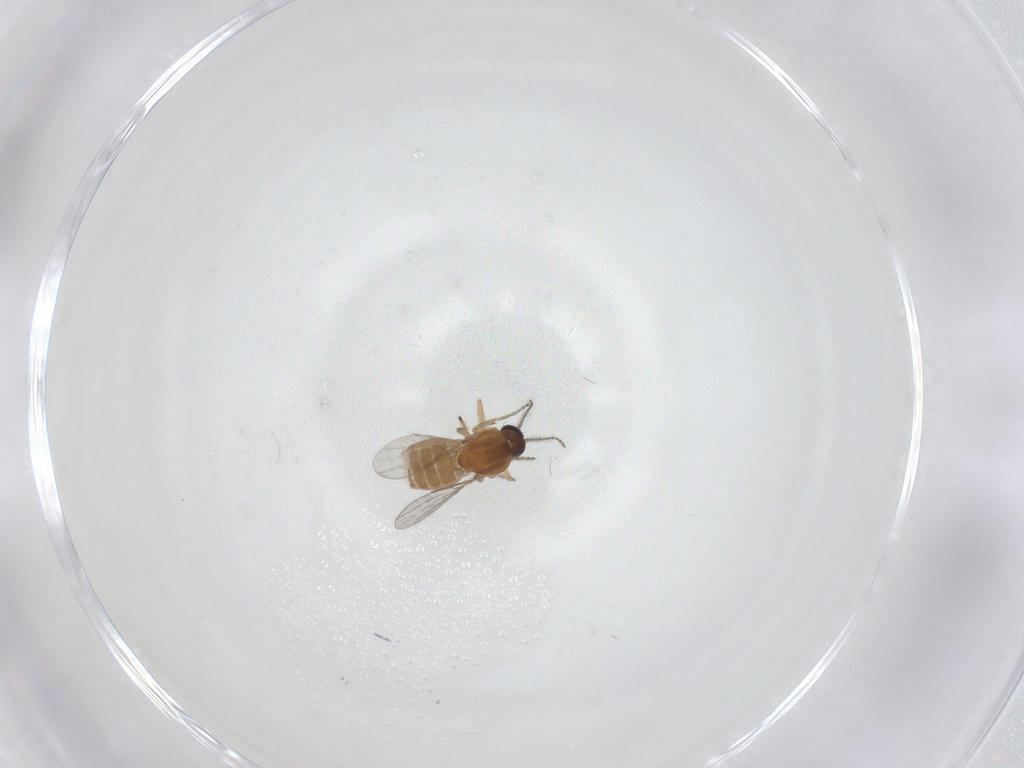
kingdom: Animalia
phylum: Arthropoda
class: Insecta
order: Diptera
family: Ceratopogonidae
